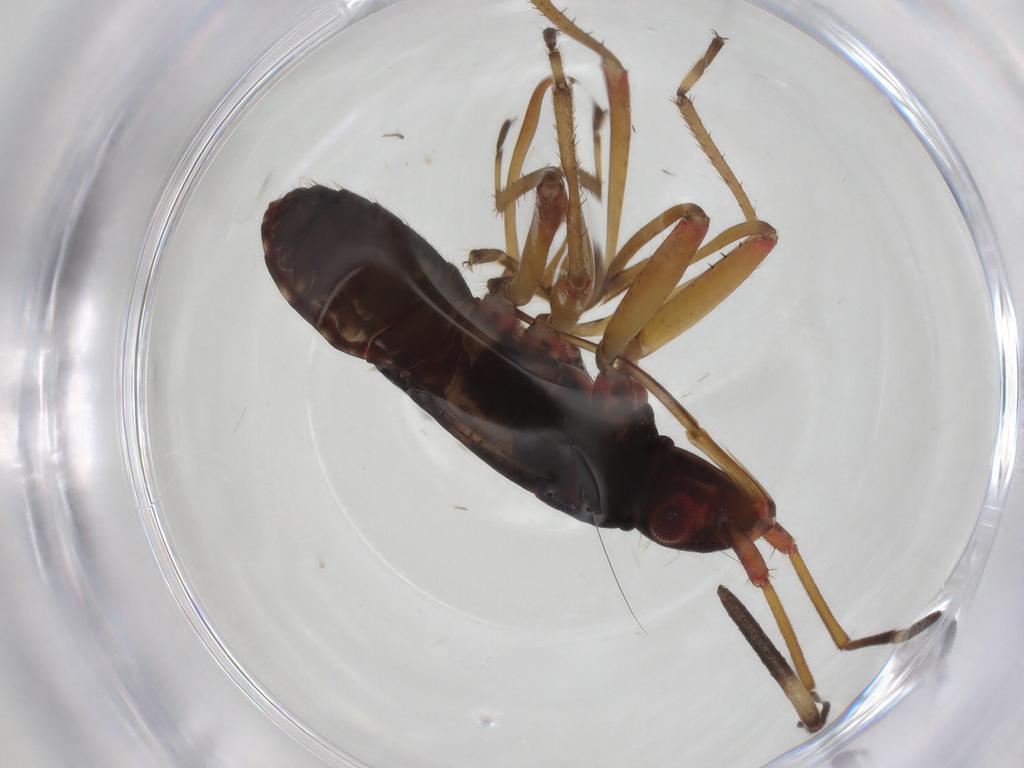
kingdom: Animalia
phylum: Arthropoda
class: Insecta
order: Hemiptera
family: Rhyparochromidae
